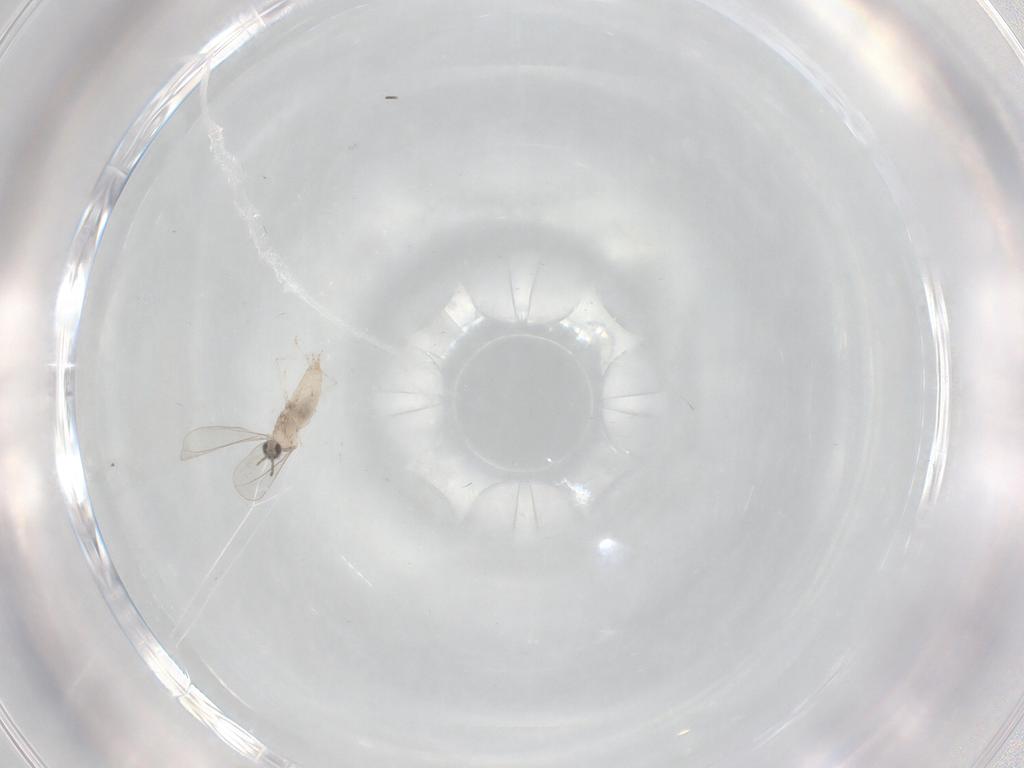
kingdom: Animalia
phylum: Arthropoda
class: Insecta
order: Diptera
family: Cecidomyiidae
